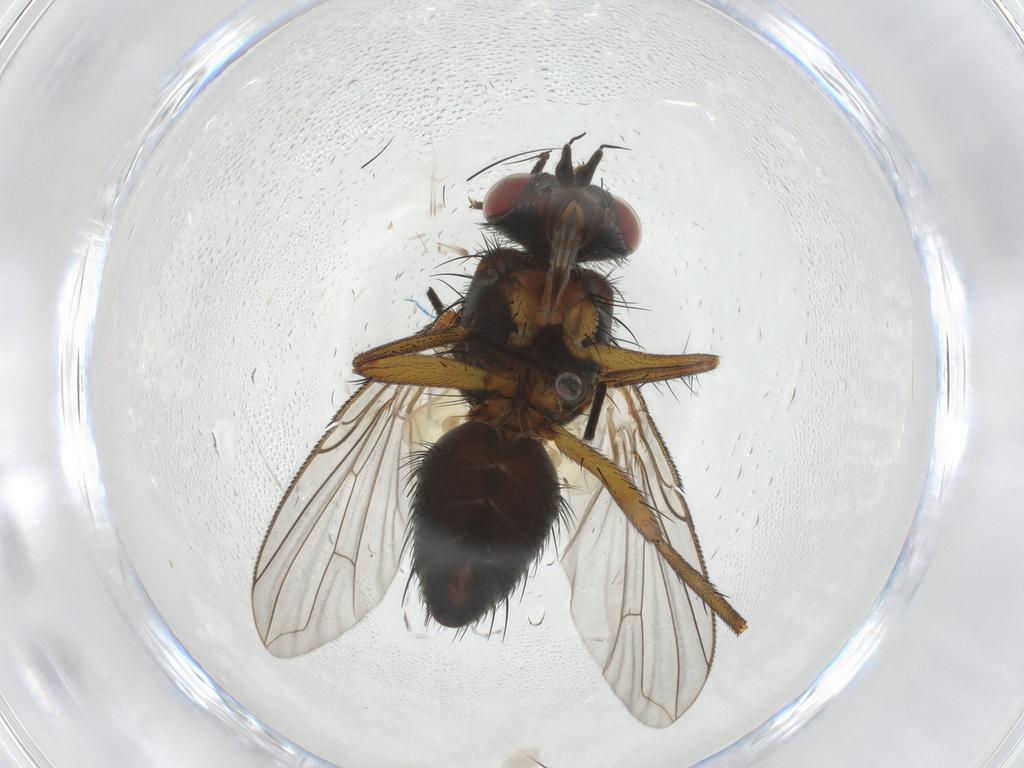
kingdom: Animalia
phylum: Arthropoda
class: Insecta
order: Diptera
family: Anthomyiidae
